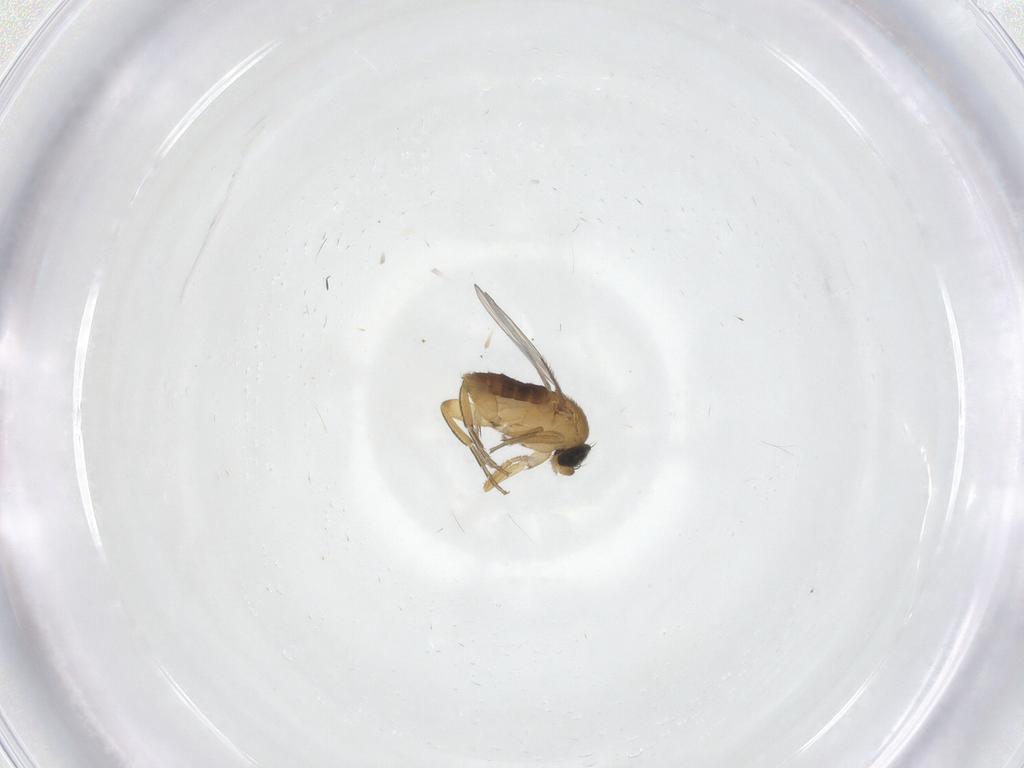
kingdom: Animalia
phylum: Arthropoda
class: Insecta
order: Diptera
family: Phoridae
